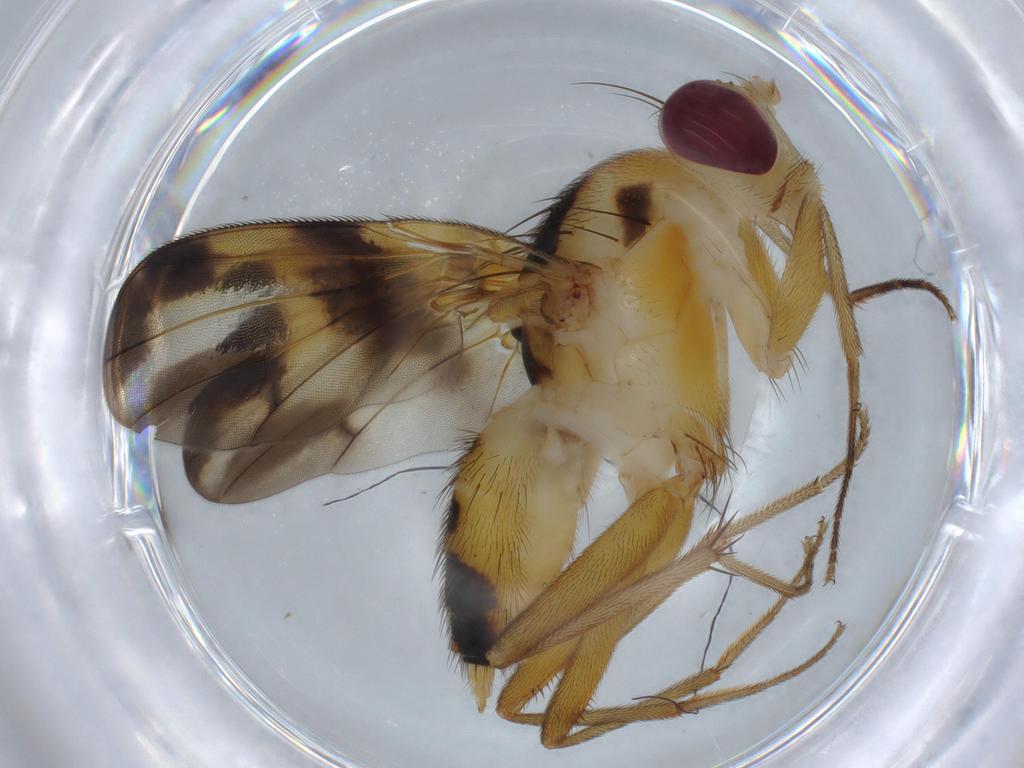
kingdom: Animalia
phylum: Arthropoda
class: Insecta
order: Diptera
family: Clusiidae
